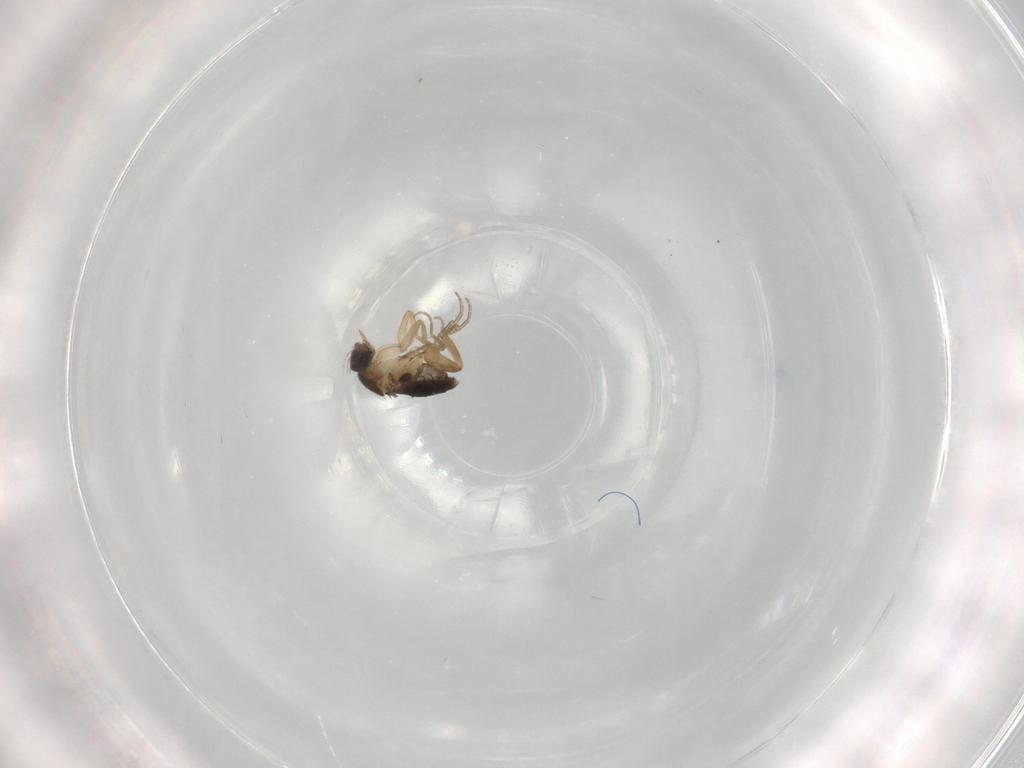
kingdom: Animalia
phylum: Arthropoda
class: Insecta
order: Diptera
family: Phoridae
